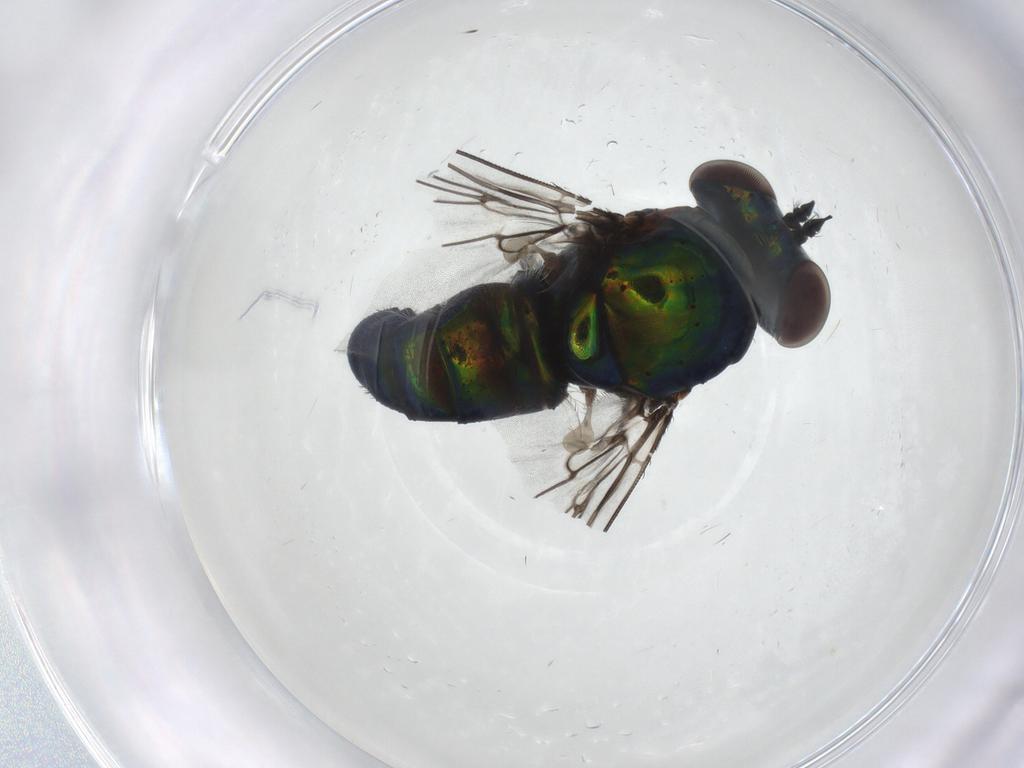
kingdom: Animalia
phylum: Arthropoda
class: Insecta
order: Diptera
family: Dolichopodidae
